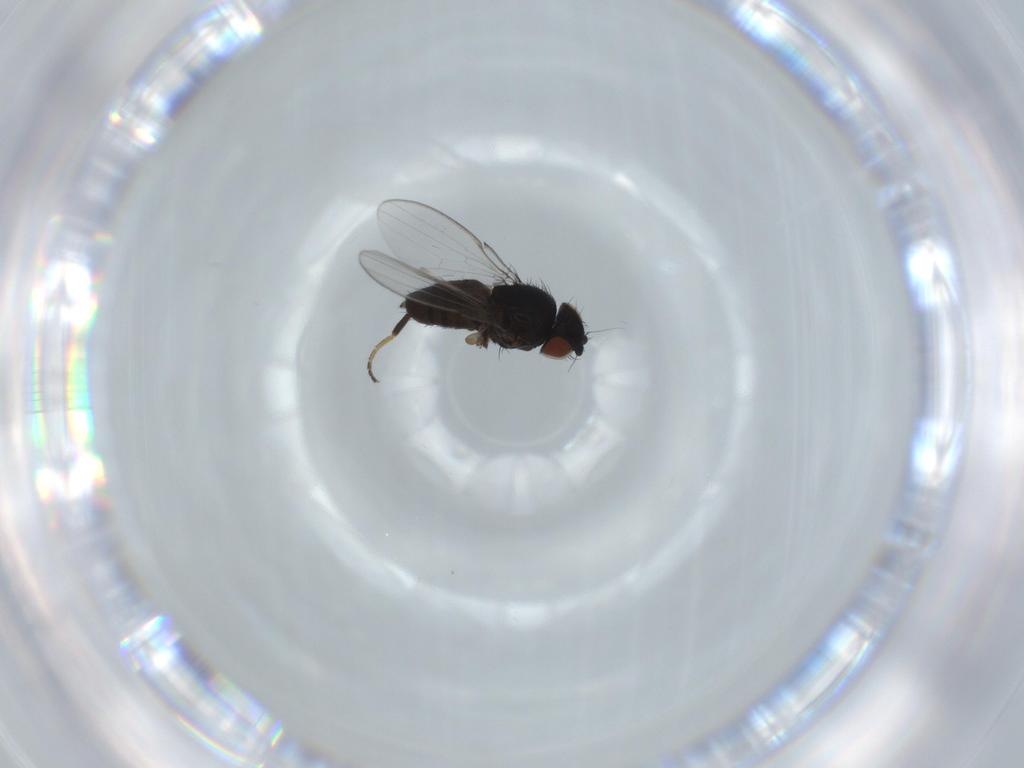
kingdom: Animalia
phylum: Arthropoda
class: Insecta
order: Diptera
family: Milichiidae
